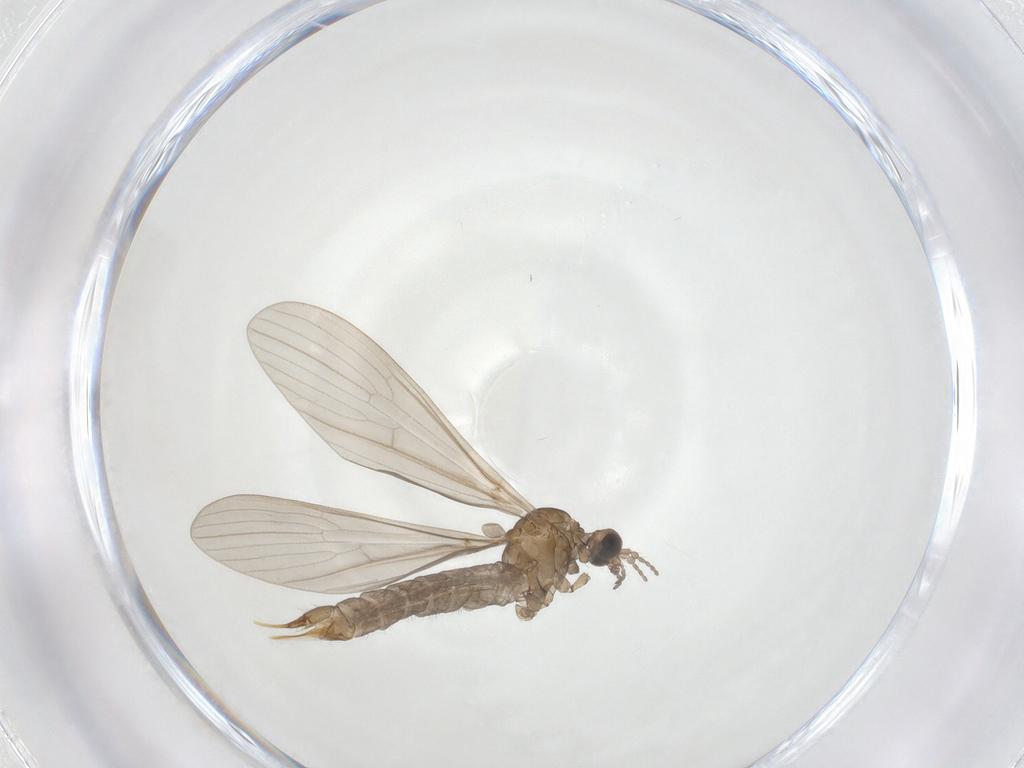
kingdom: Animalia
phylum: Arthropoda
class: Insecta
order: Diptera
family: Limoniidae
